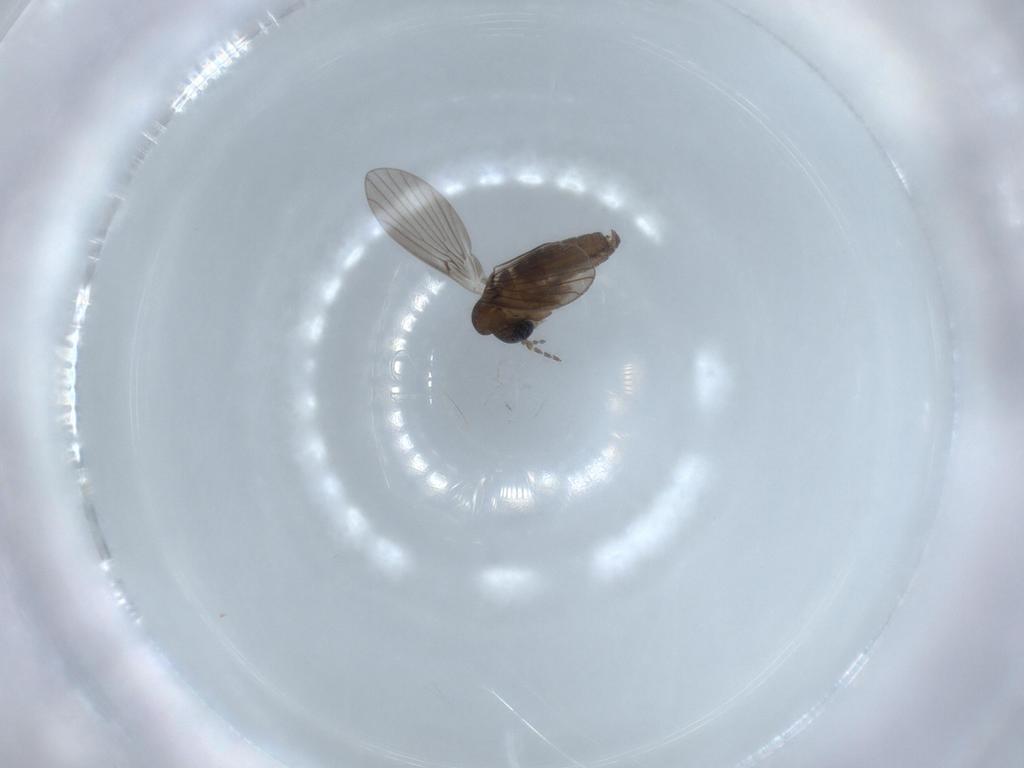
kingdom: Animalia
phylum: Arthropoda
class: Insecta
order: Diptera
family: Psychodidae
